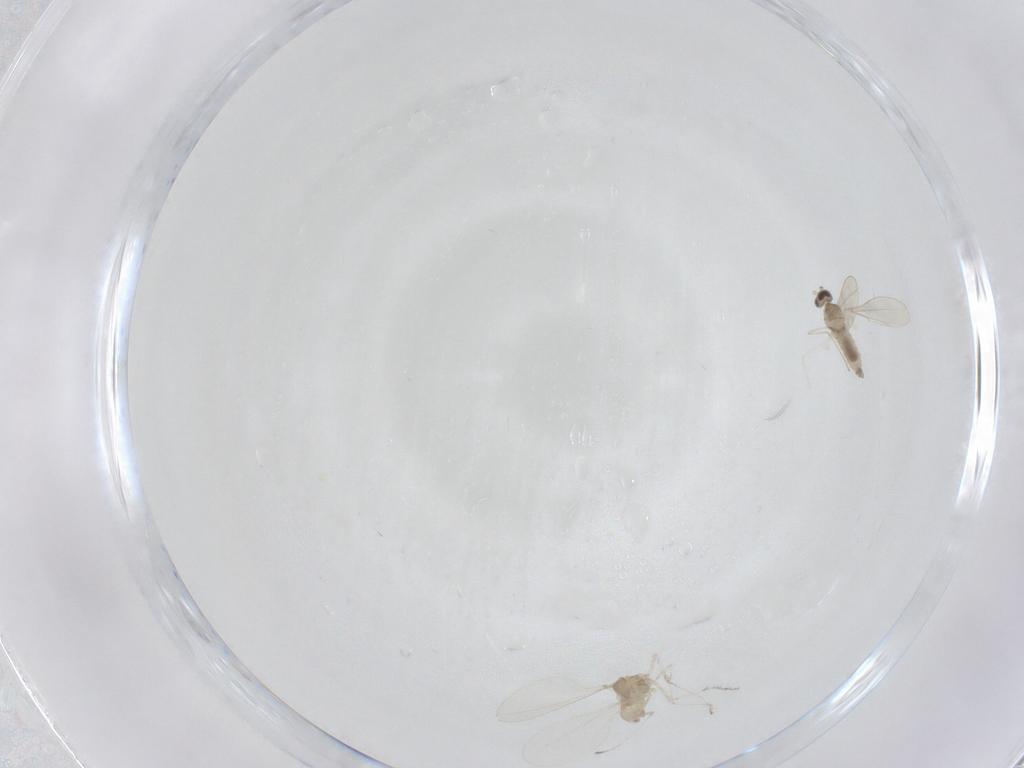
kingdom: Animalia
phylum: Arthropoda
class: Insecta
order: Diptera
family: Cecidomyiidae
